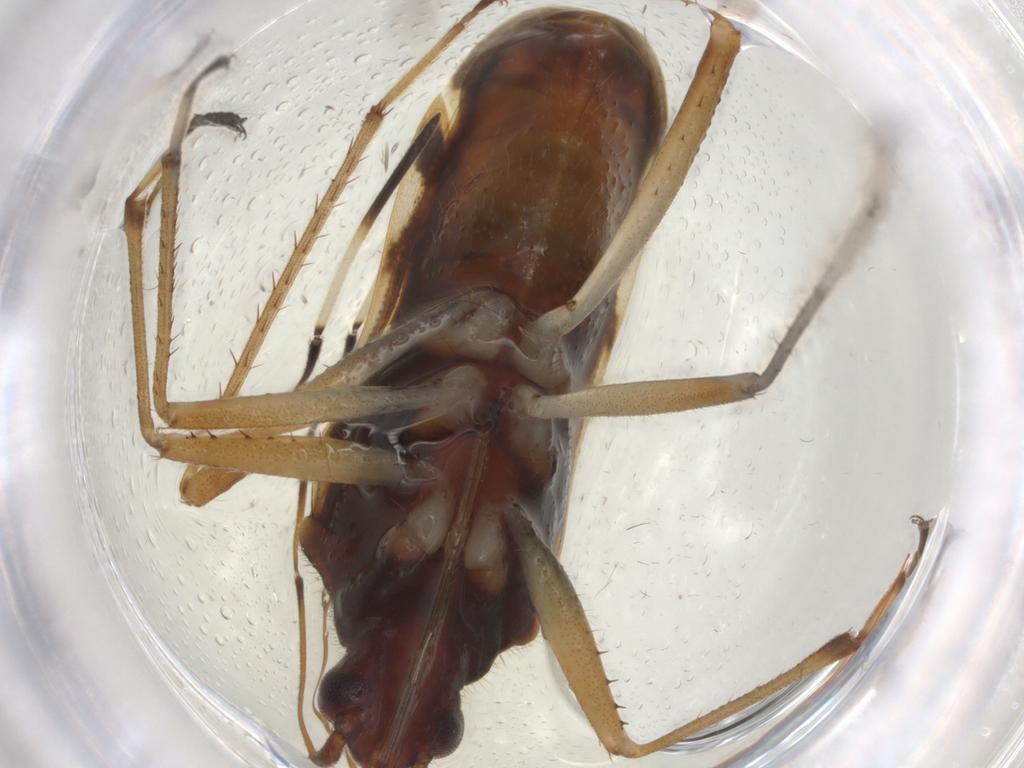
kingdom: Animalia
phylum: Arthropoda
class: Insecta
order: Hemiptera
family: Rhyparochromidae
